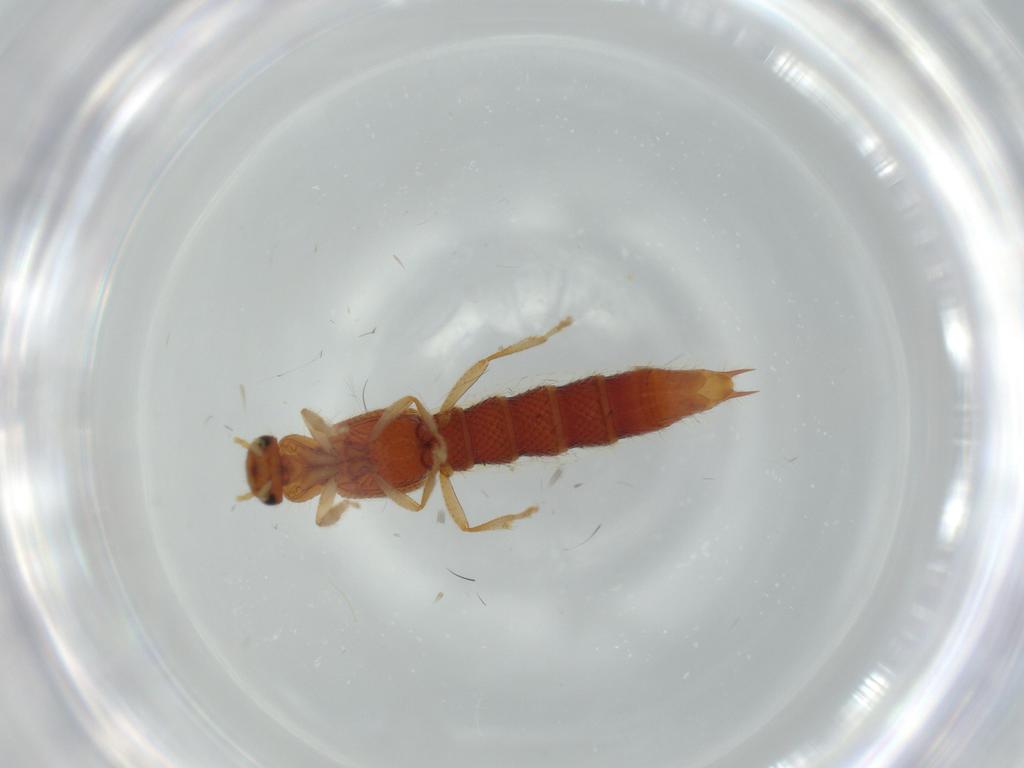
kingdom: Animalia
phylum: Arthropoda
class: Insecta
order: Coleoptera
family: Staphylinidae
